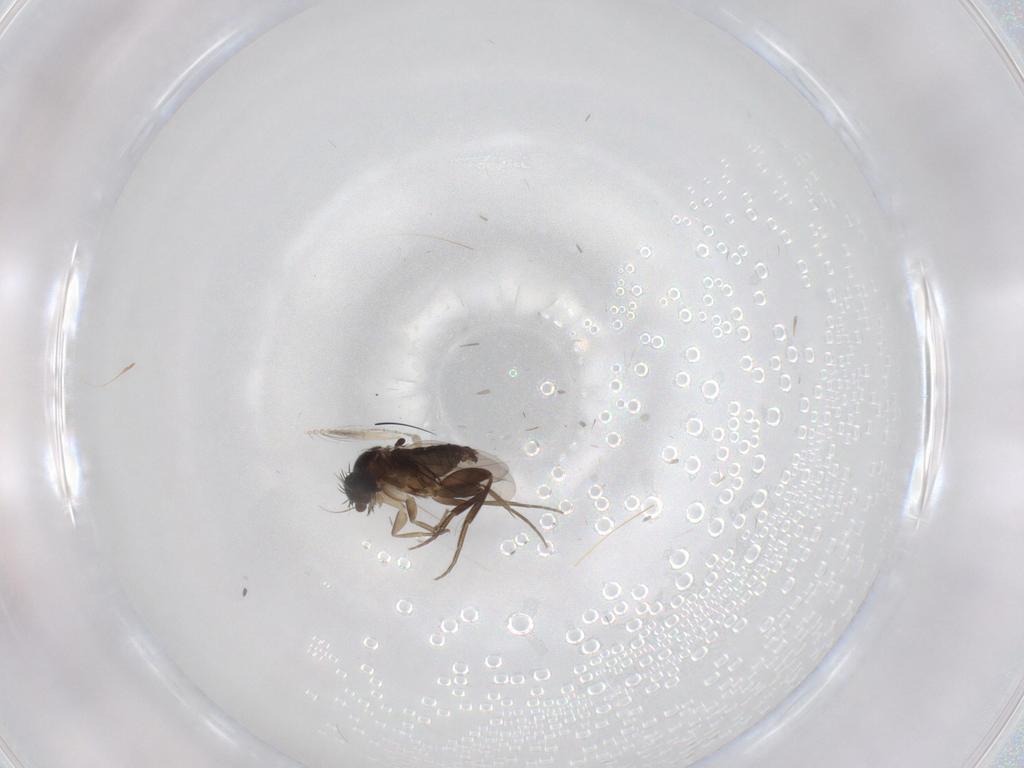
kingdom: Animalia
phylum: Arthropoda
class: Insecta
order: Diptera
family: Phoridae
